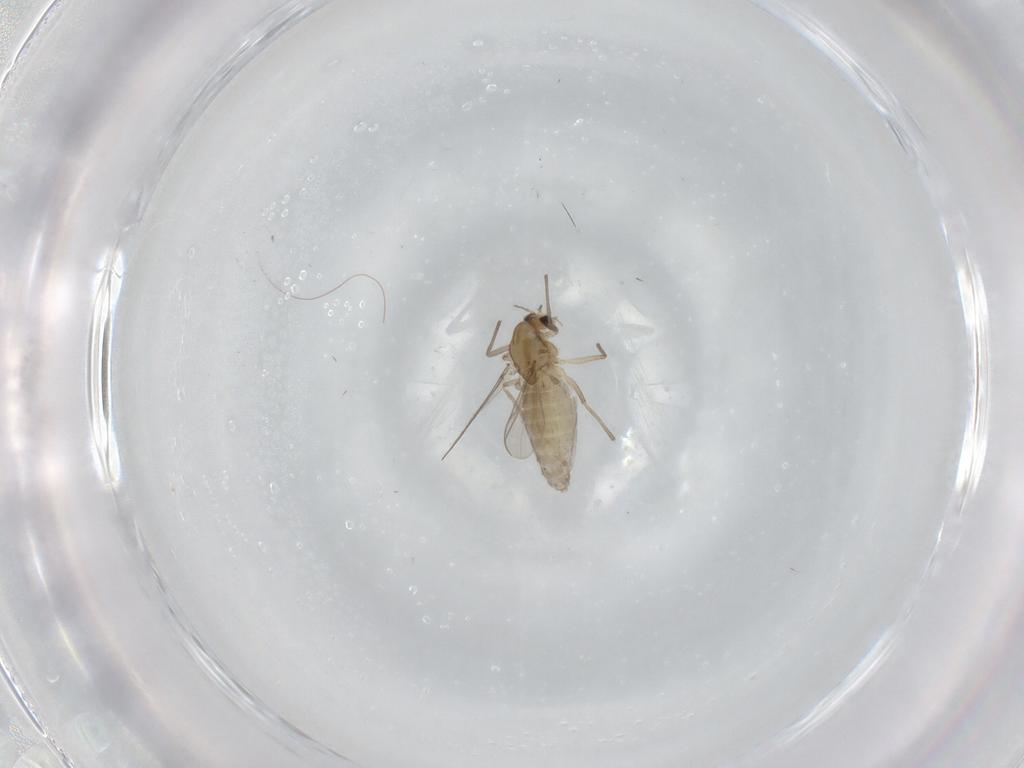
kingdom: Animalia
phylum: Arthropoda
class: Insecta
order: Diptera
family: Chironomidae
